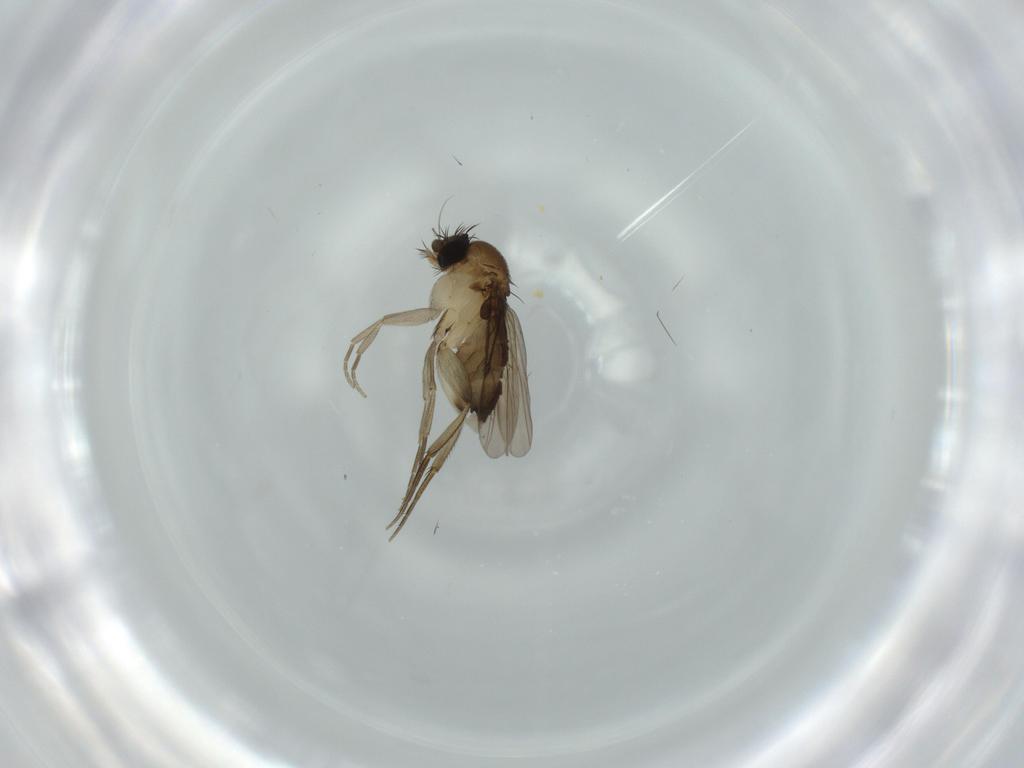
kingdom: Animalia
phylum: Arthropoda
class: Insecta
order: Diptera
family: Phoridae
